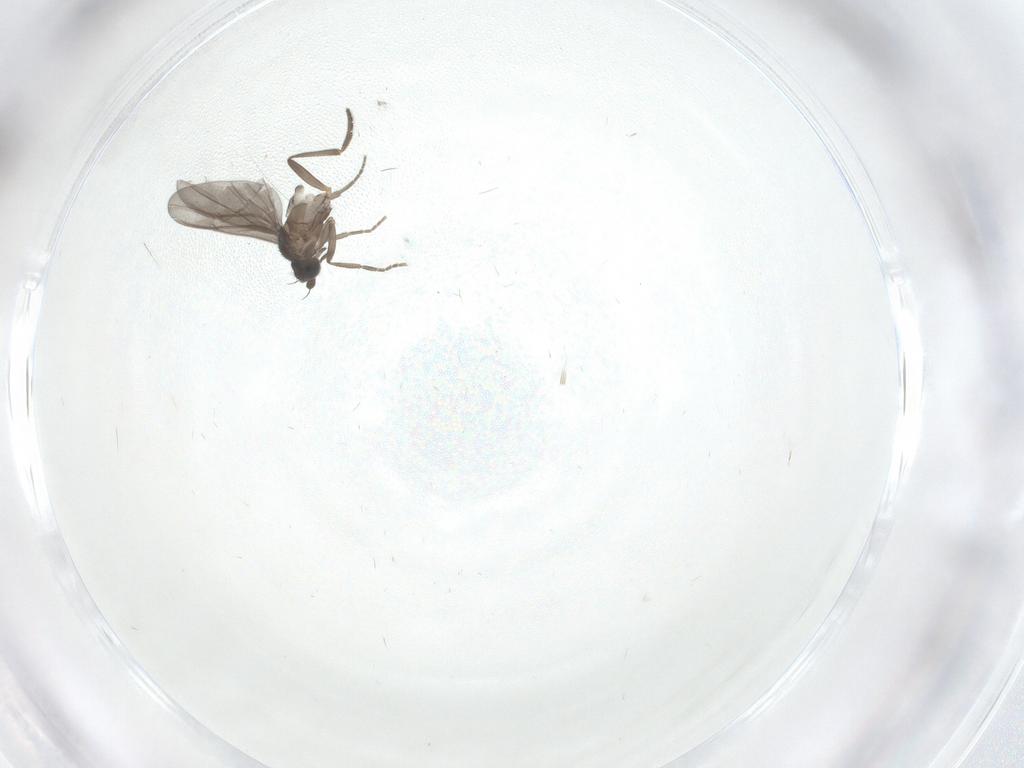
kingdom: Animalia
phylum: Arthropoda
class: Insecta
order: Diptera
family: Phoridae
